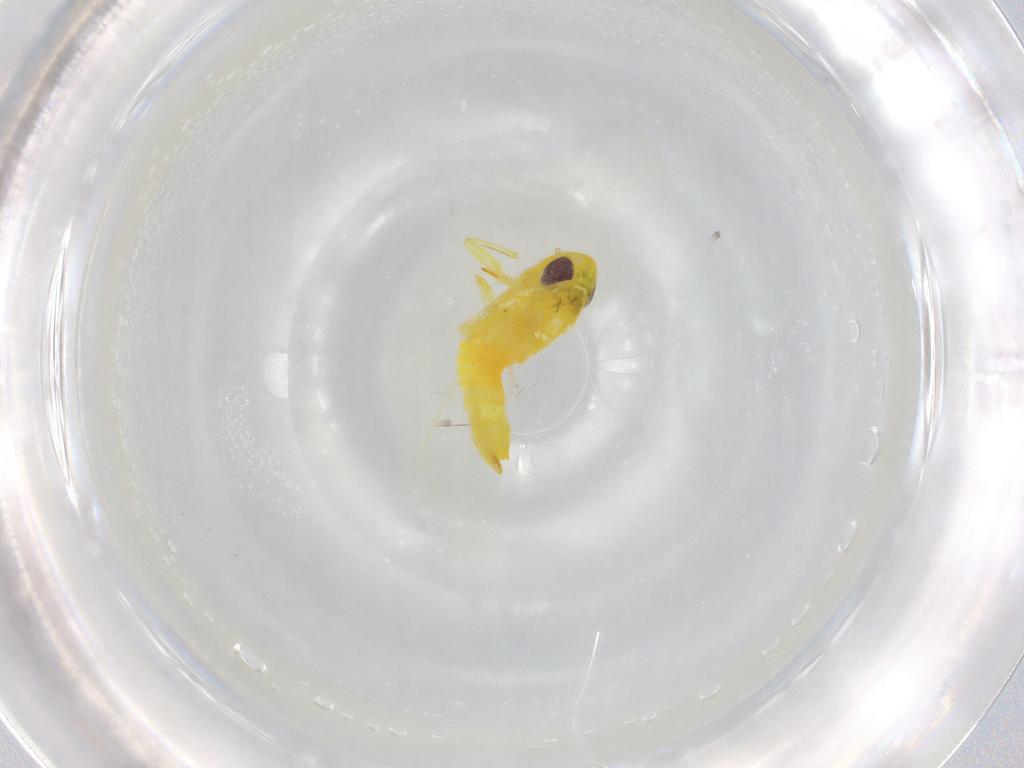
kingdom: Animalia
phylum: Arthropoda
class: Insecta
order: Hemiptera
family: Cicadellidae
